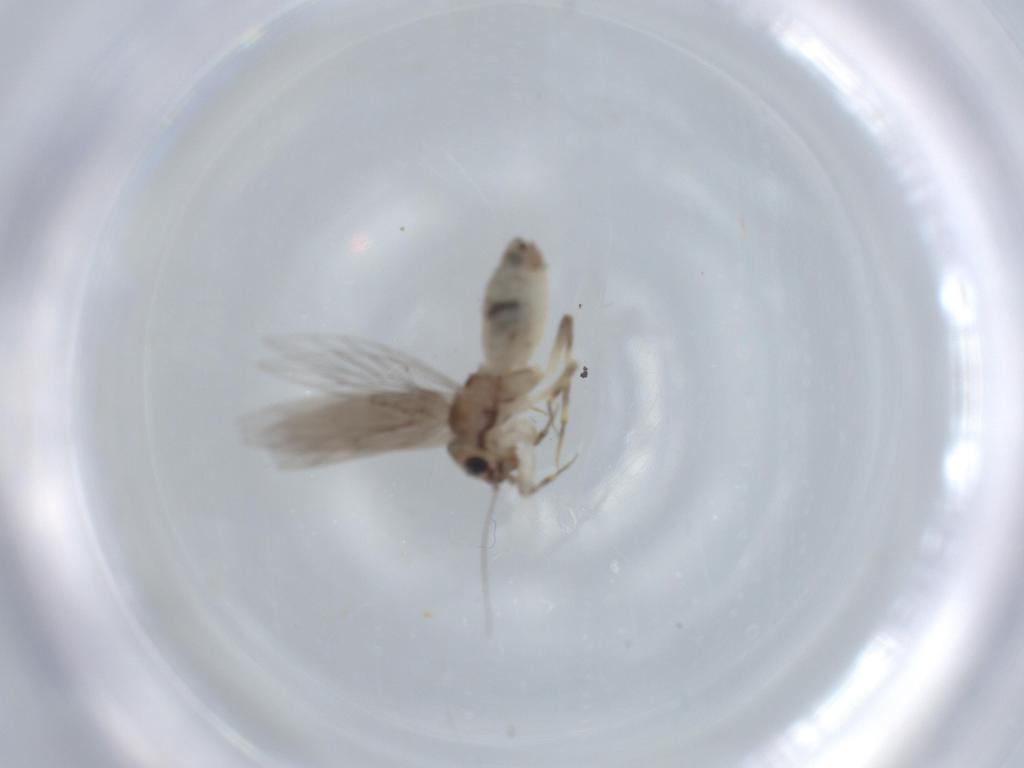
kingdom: Animalia
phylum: Arthropoda
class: Insecta
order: Psocodea
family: Lepidopsocidae
